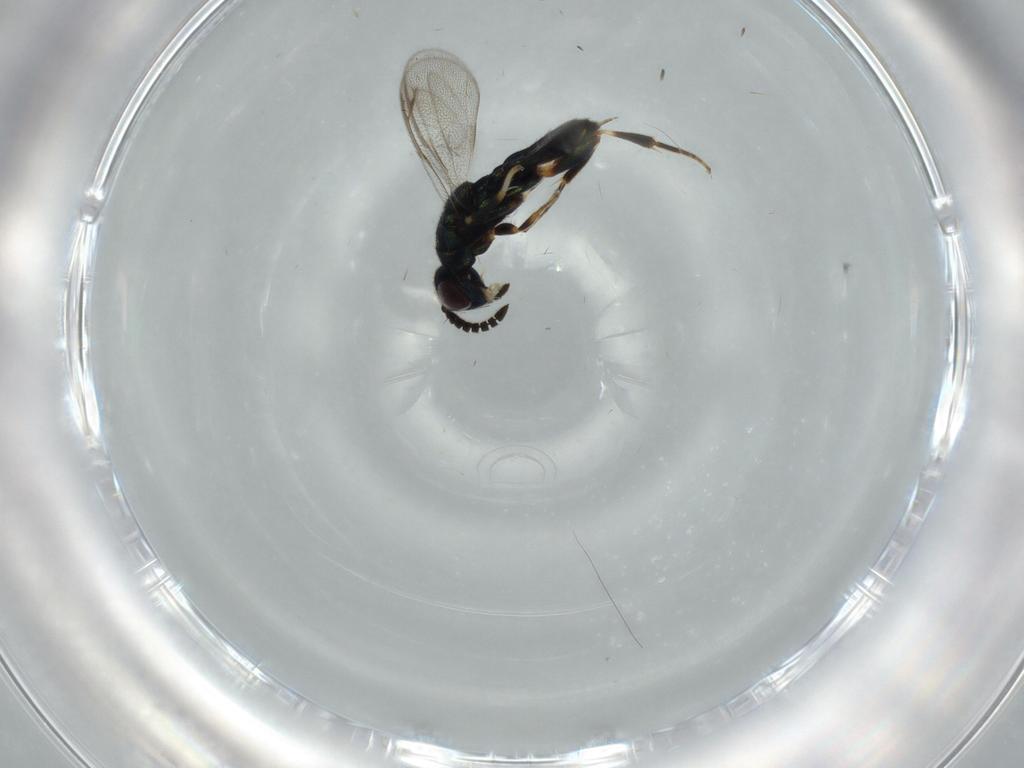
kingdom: Animalia
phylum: Arthropoda
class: Insecta
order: Hymenoptera
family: Cleonyminae
